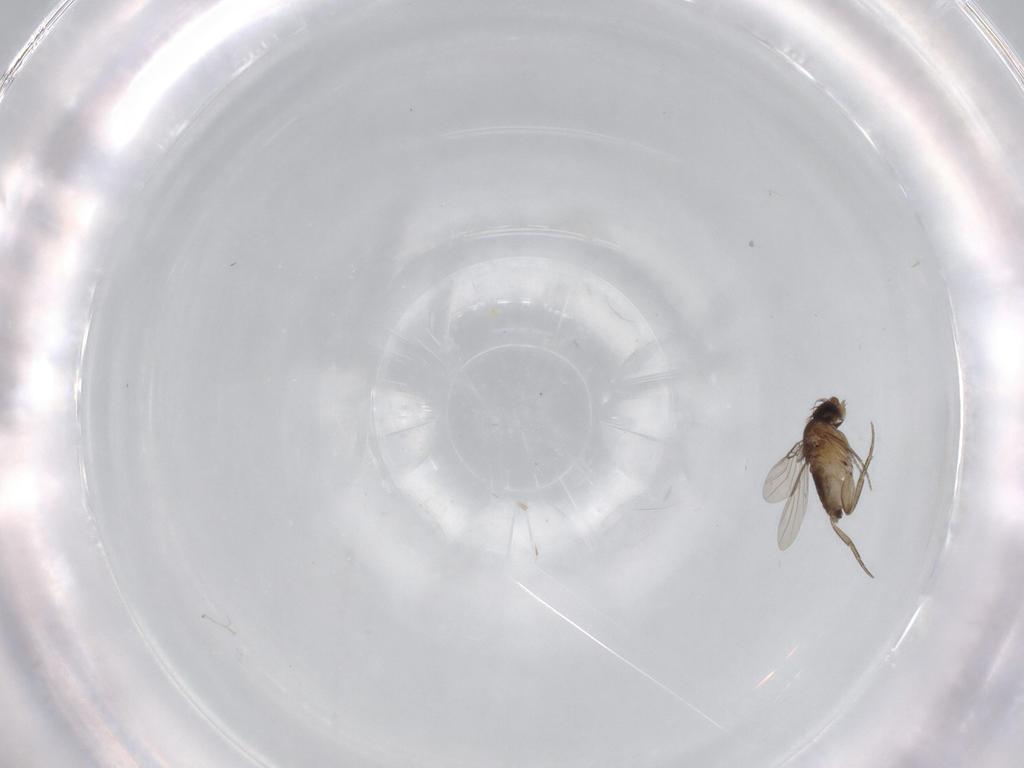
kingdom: Animalia
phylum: Arthropoda
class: Insecta
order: Diptera
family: Phoridae
